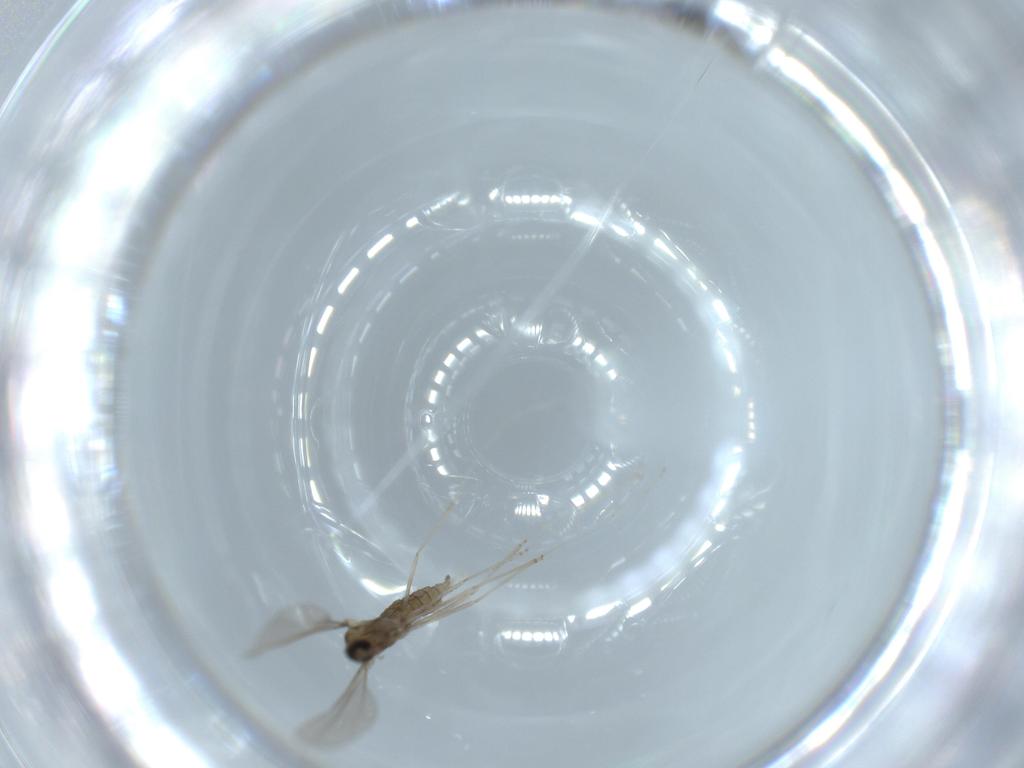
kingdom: Animalia
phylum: Arthropoda
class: Insecta
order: Diptera
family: Cecidomyiidae
